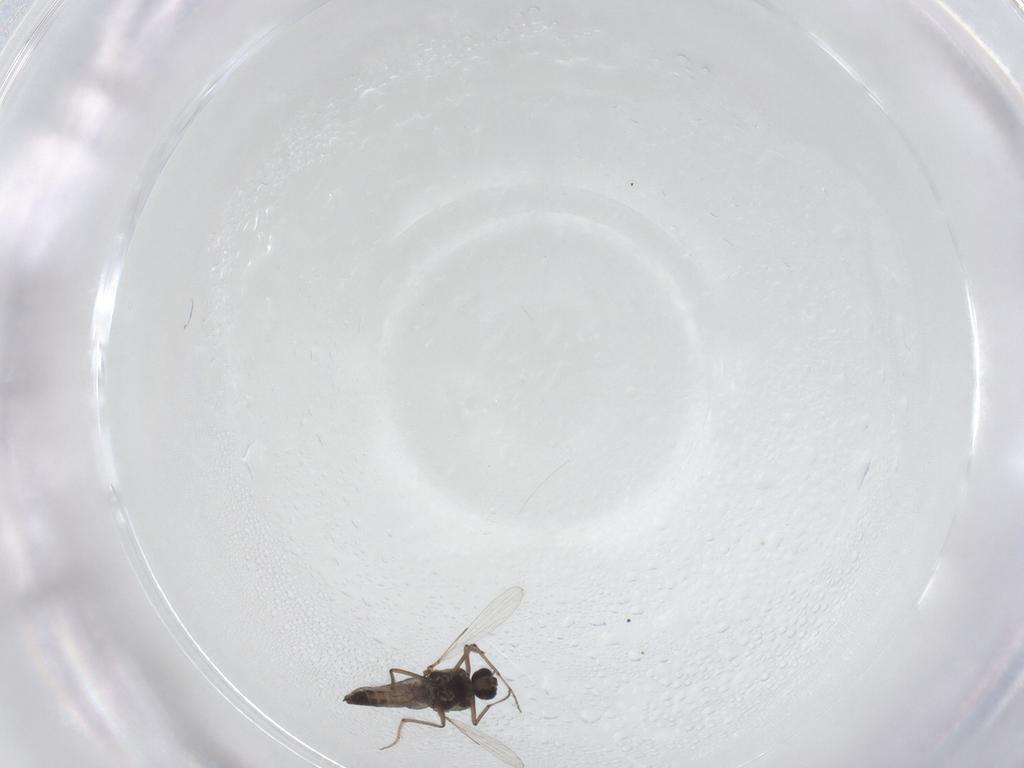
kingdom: Animalia
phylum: Arthropoda
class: Insecta
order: Diptera
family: Ceratopogonidae
